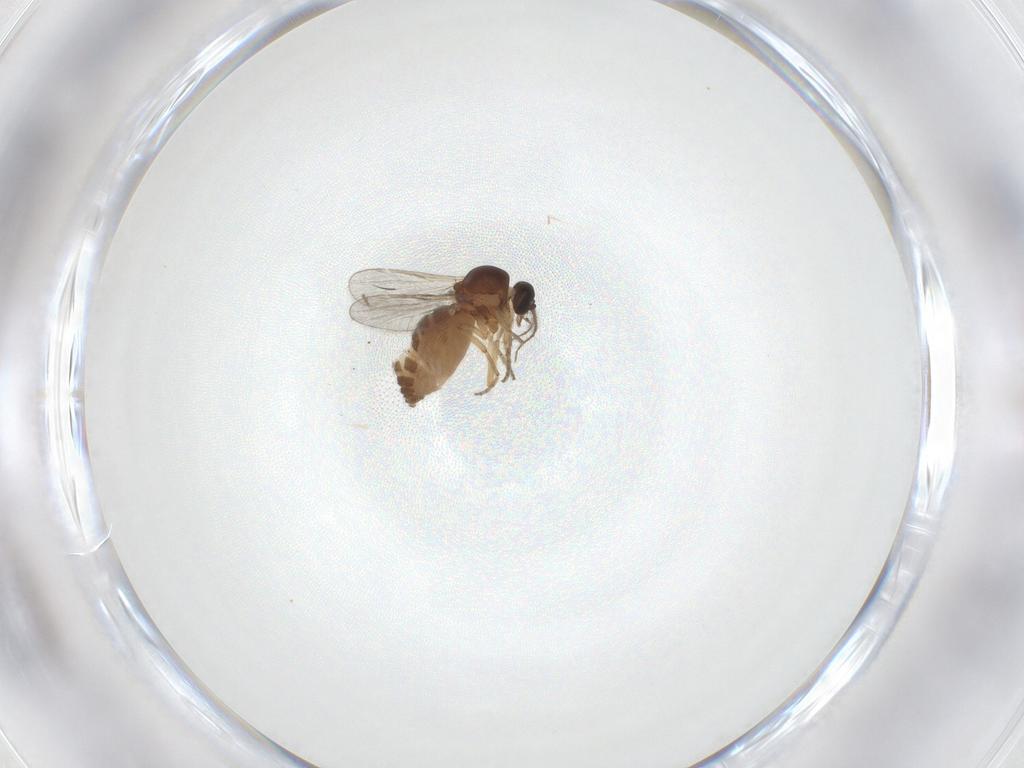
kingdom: Animalia
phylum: Arthropoda
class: Insecta
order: Diptera
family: Ceratopogonidae
